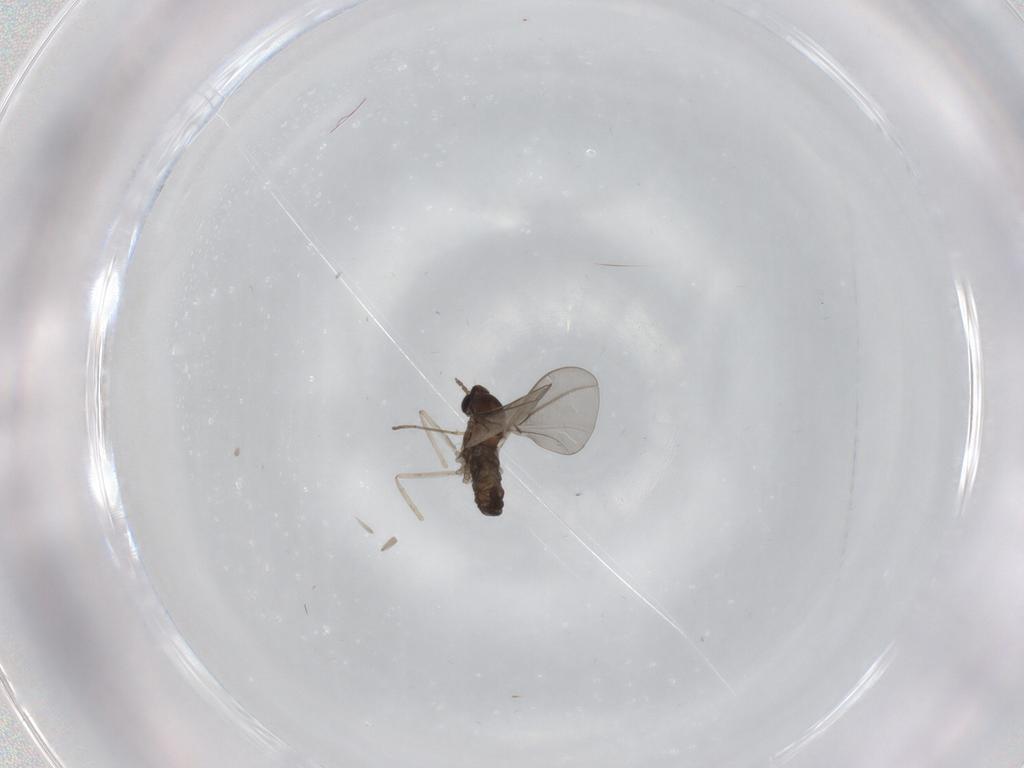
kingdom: Animalia
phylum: Arthropoda
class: Insecta
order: Diptera
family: Cecidomyiidae
